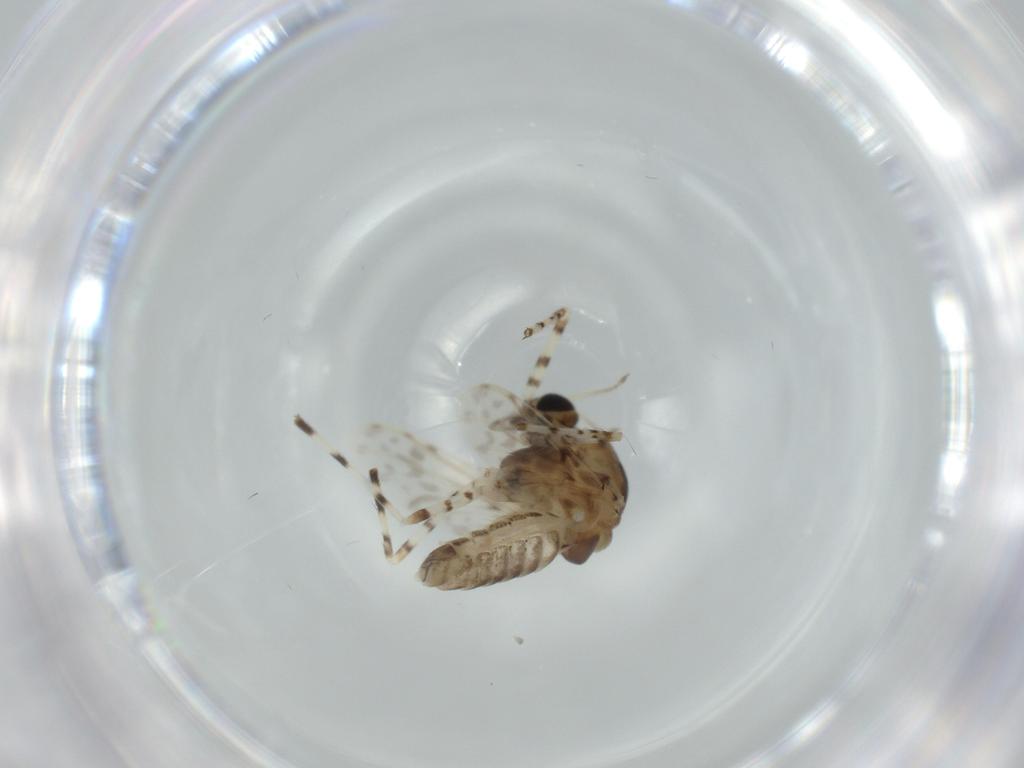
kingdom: Animalia
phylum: Arthropoda
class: Insecta
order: Diptera
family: Chironomidae
